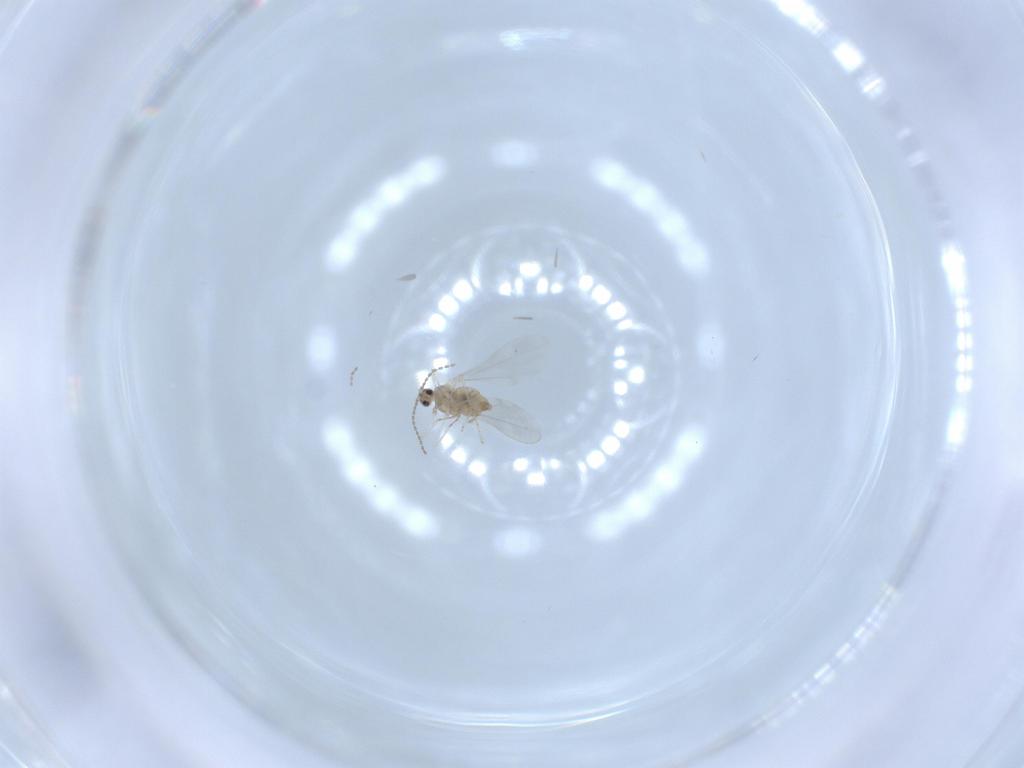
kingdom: Animalia
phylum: Arthropoda
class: Insecta
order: Diptera
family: Cecidomyiidae
